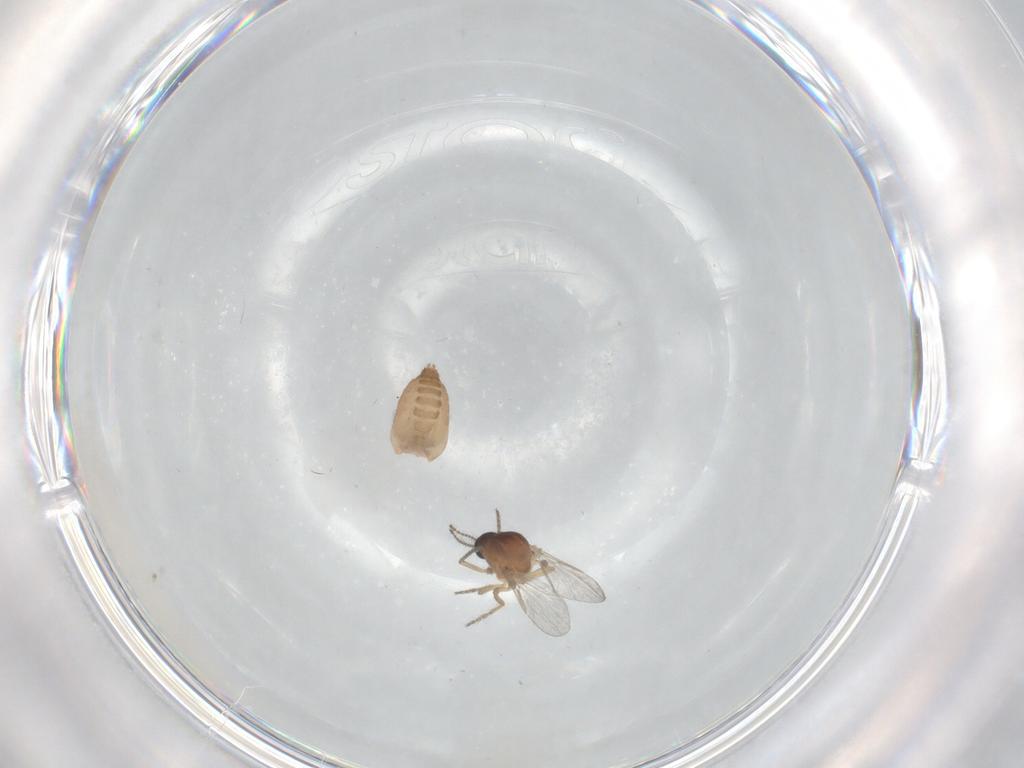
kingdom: Animalia
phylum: Arthropoda
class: Insecta
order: Diptera
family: Ceratopogonidae
